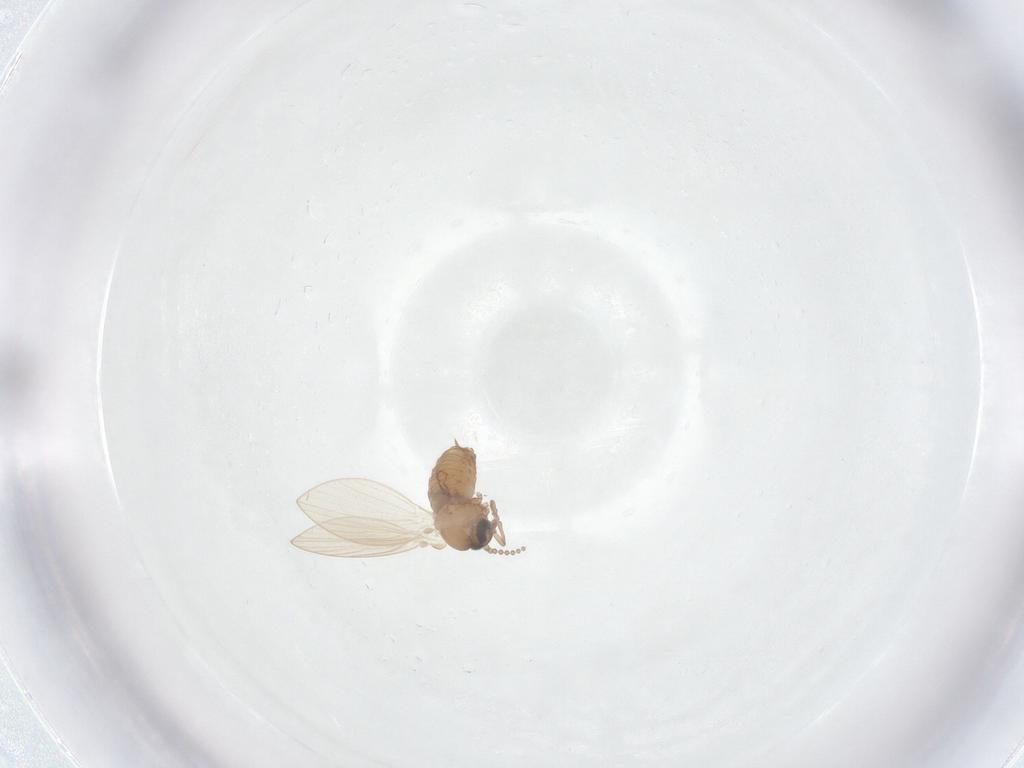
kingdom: Animalia
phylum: Arthropoda
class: Insecta
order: Diptera
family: Psychodidae
